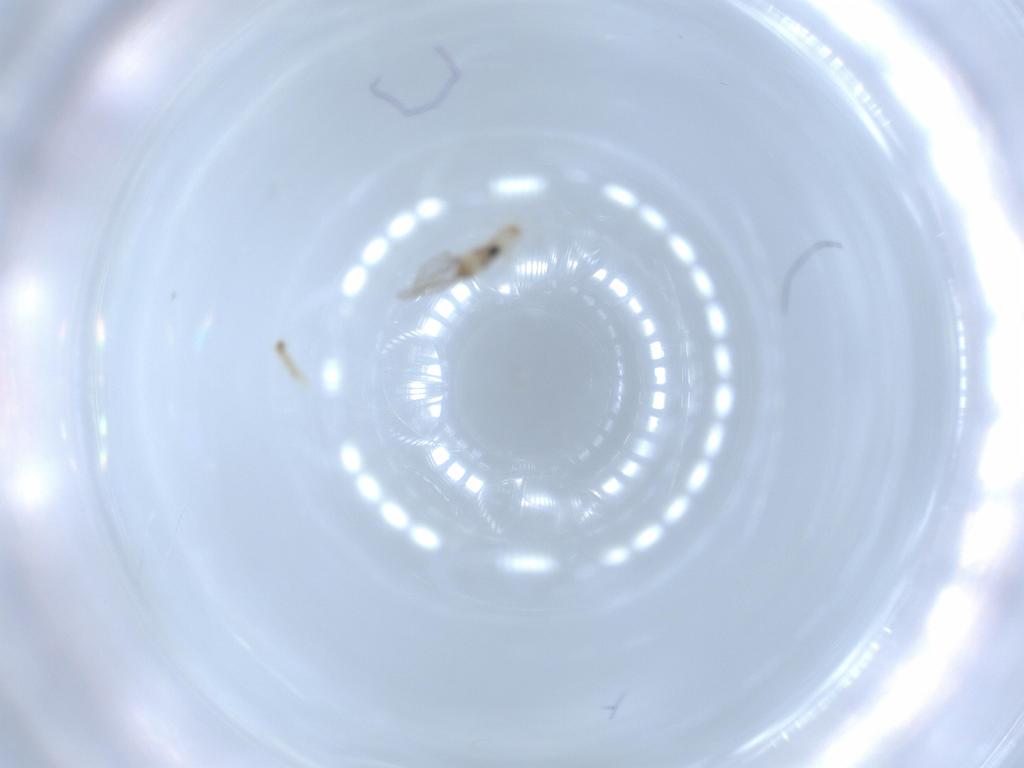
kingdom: Animalia
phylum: Arthropoda
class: Insecta
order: Diptera
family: Cecidomyiidae
